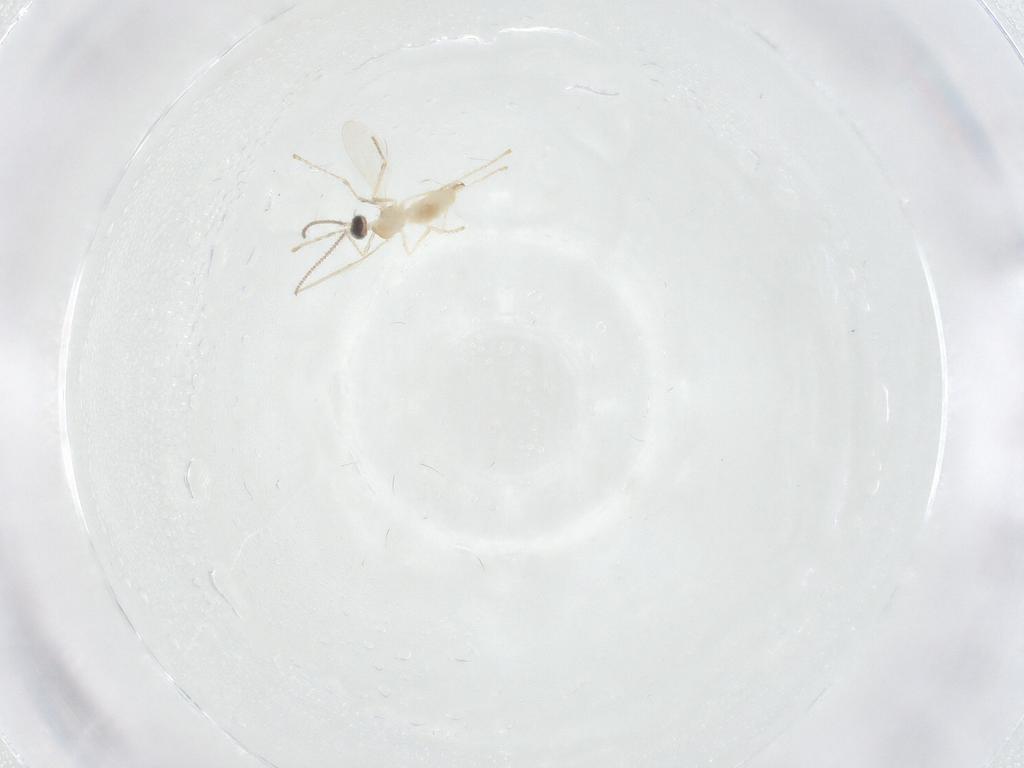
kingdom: Animalia
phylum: Arthropoda
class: Insecta
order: Diptera
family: Cecidomyiidae
